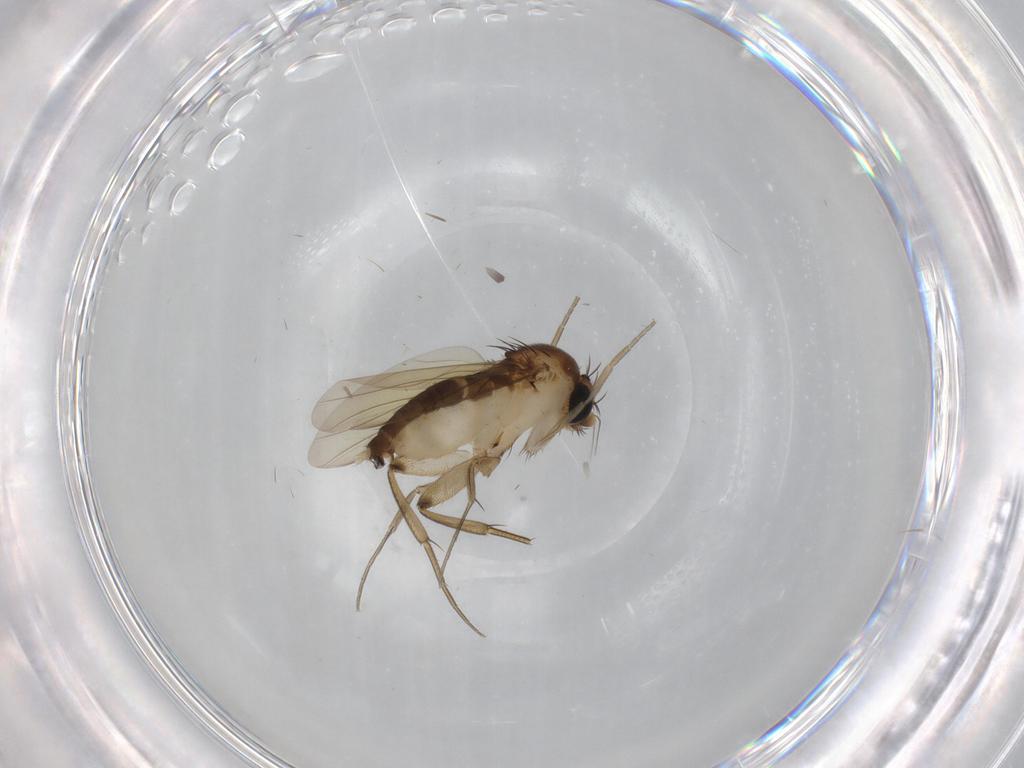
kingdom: Animalia
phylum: Arthropoda
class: Insecta
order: Diptera
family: Phoridae
